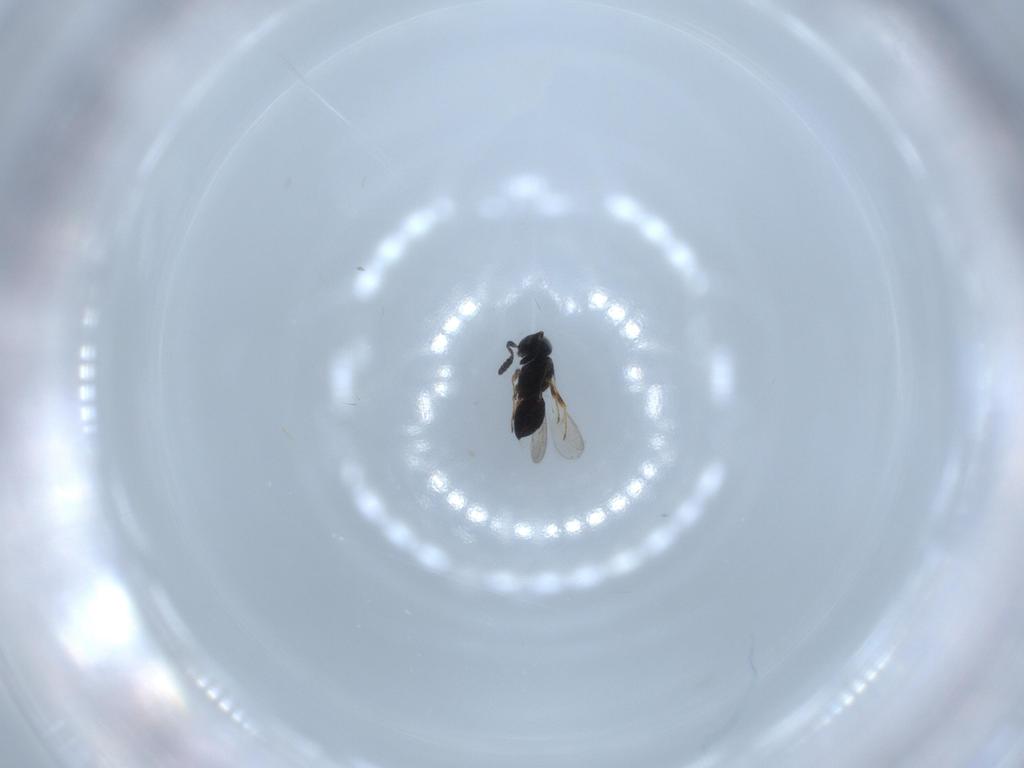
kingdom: Animalia
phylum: Arthropoda
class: Insecta
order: Hymenoptera
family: Scelionidae
